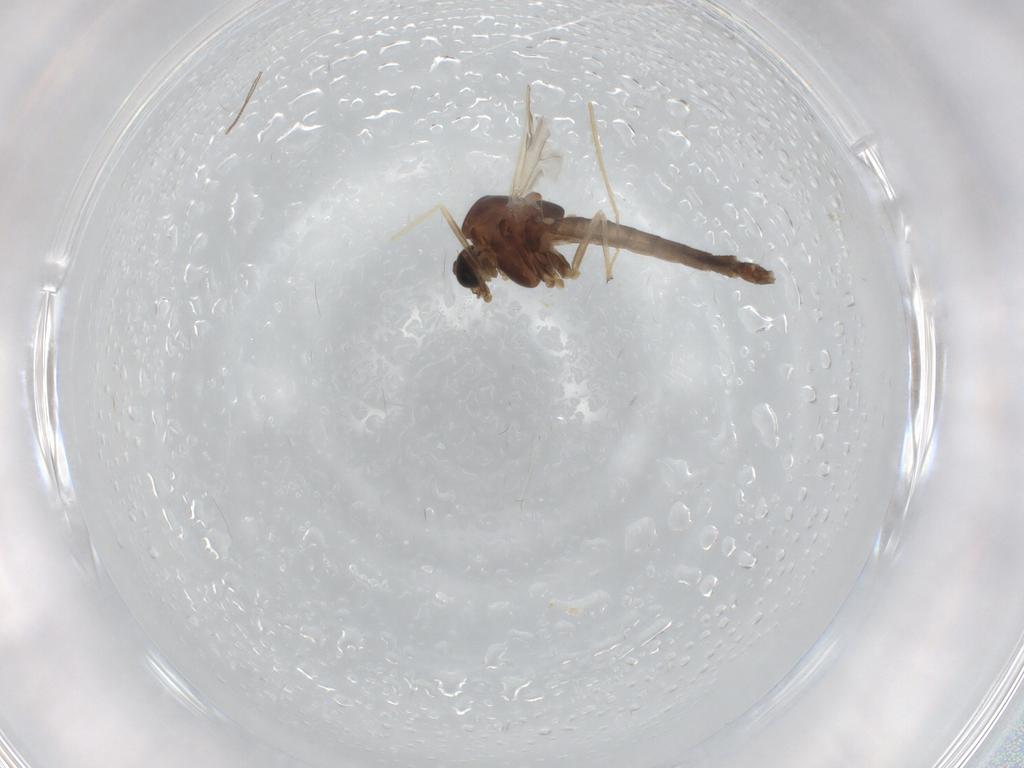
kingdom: Animalia
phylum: Arthropoda
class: Insecta
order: Diptera
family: Chironomidae
